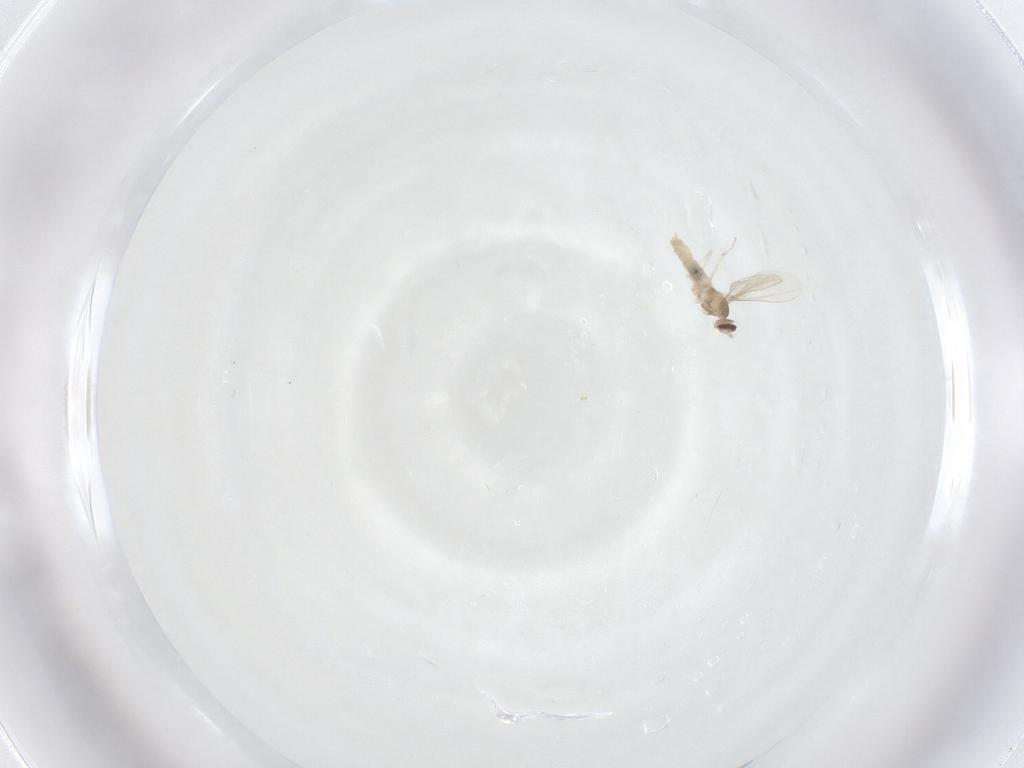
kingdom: Animalia
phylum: Arthropoda
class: Insecta
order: Diptera
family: Cecidomyiidae
